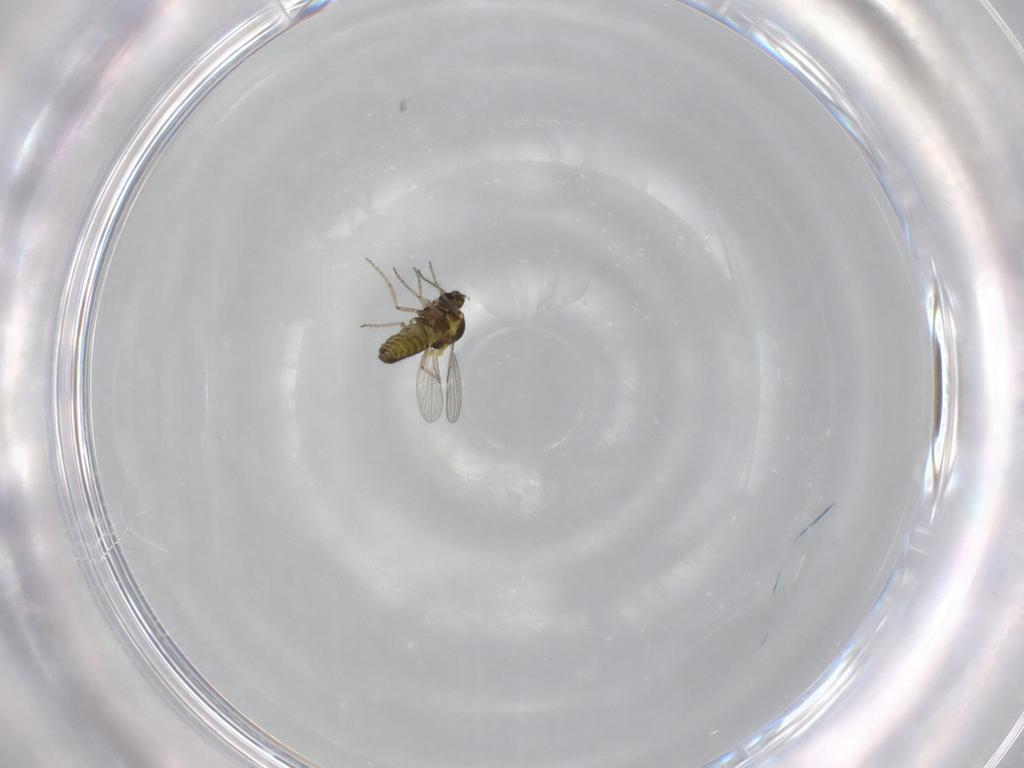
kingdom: Animalia
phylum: Arthropoda
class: Insecta
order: Diptera
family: Ceratopogonidae
